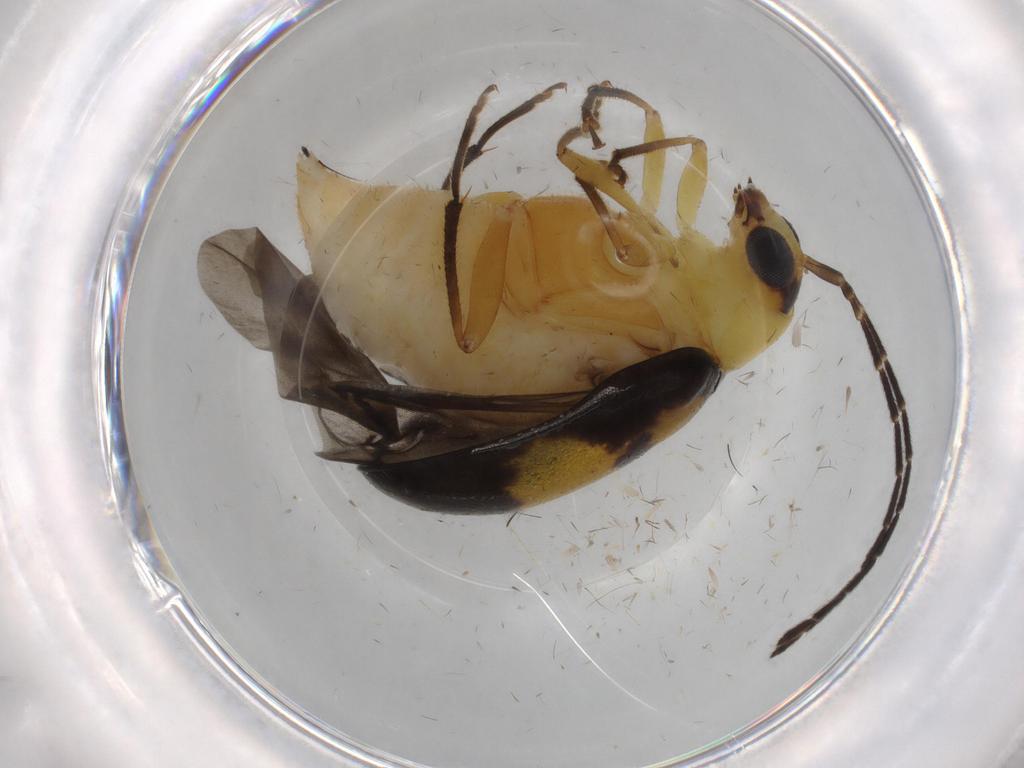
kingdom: Animalia
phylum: Arthropoda
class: Insecta
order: Coleoptera
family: Chrysomelidae
